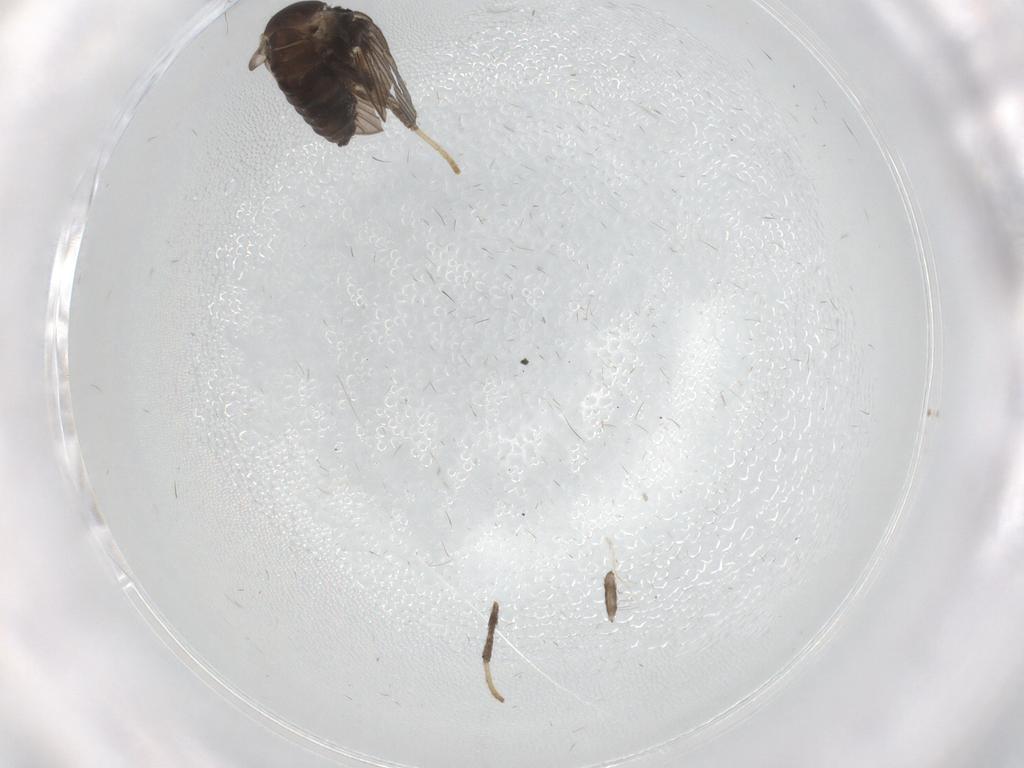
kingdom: Animalia
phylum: Arthropoda
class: Insecta
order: Diptera
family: Psychodidae
